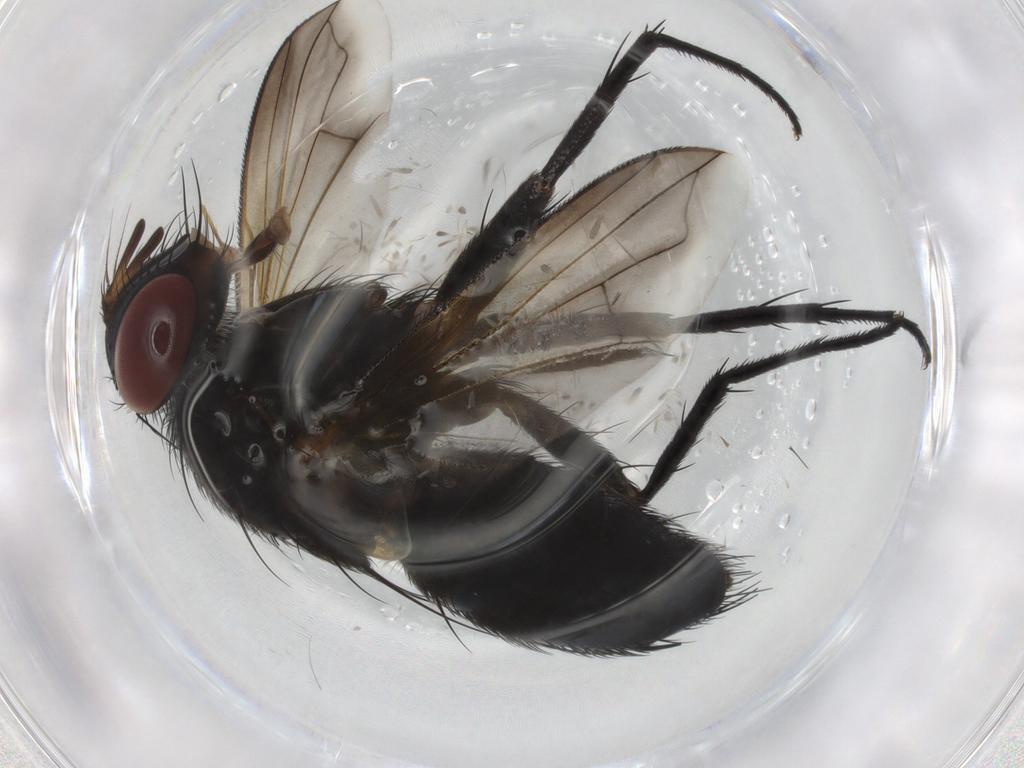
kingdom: Animalia
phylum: Arthropoda
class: Insecta
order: Diptera
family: Tachinidae
